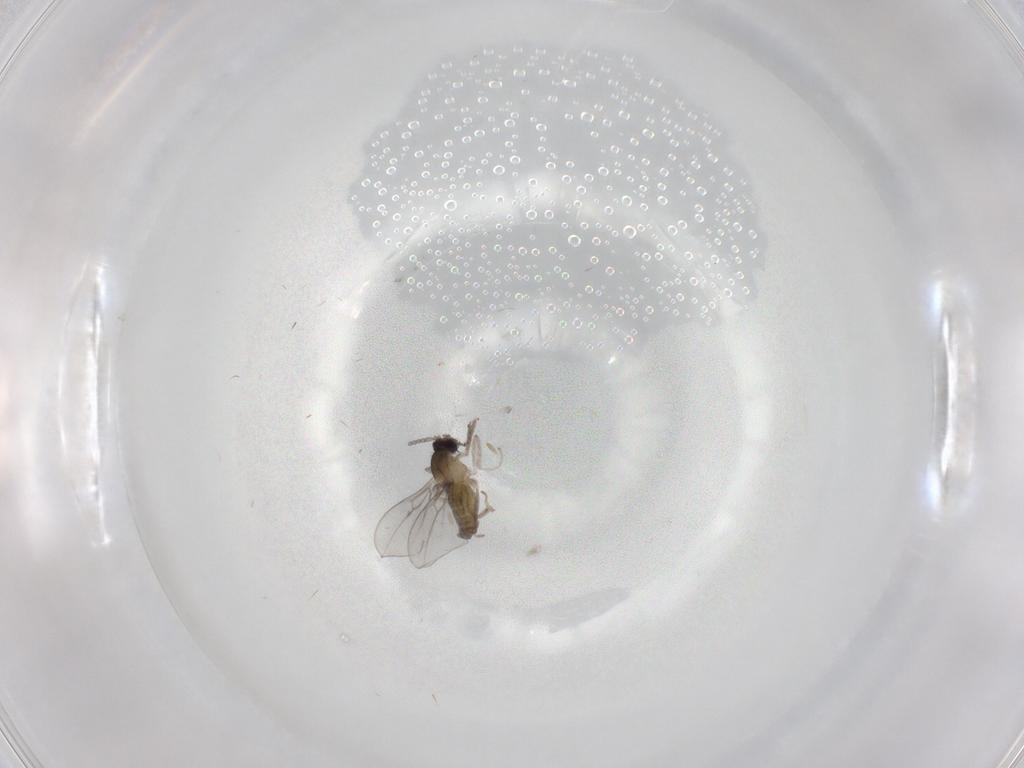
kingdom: Animalia
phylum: Arthropoda
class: Insecta
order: Diptera
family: Cecidomyiidae
